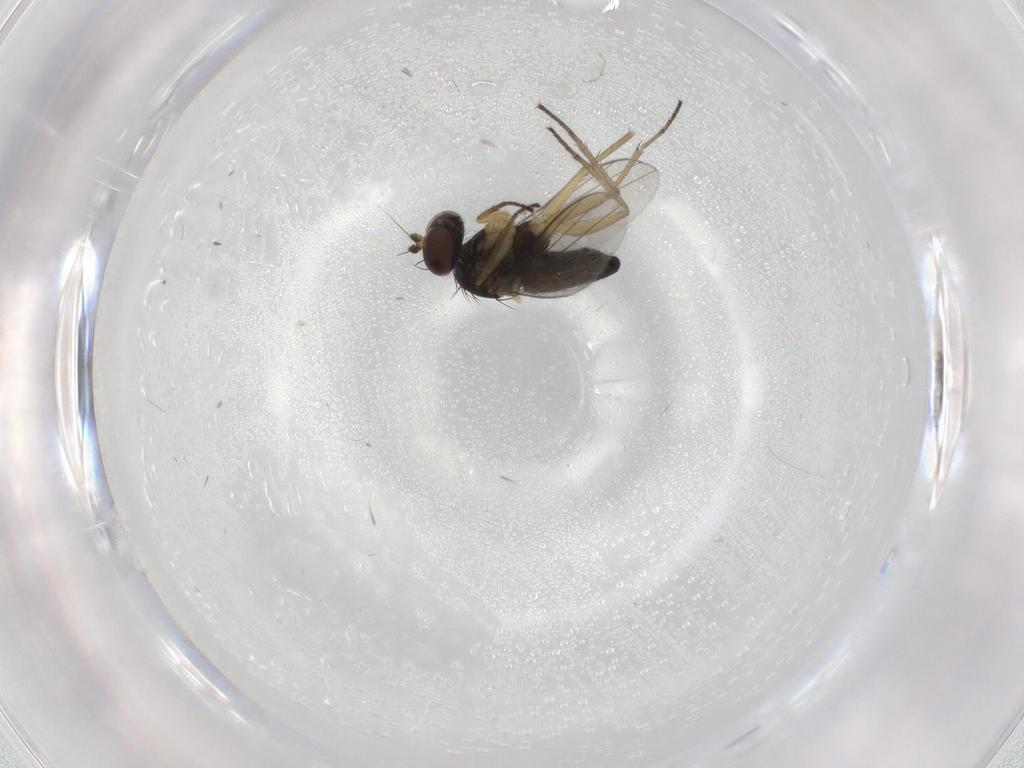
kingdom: Animalia
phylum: Arthropoda
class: Insecta
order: Diptera
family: Dolichopodidae
